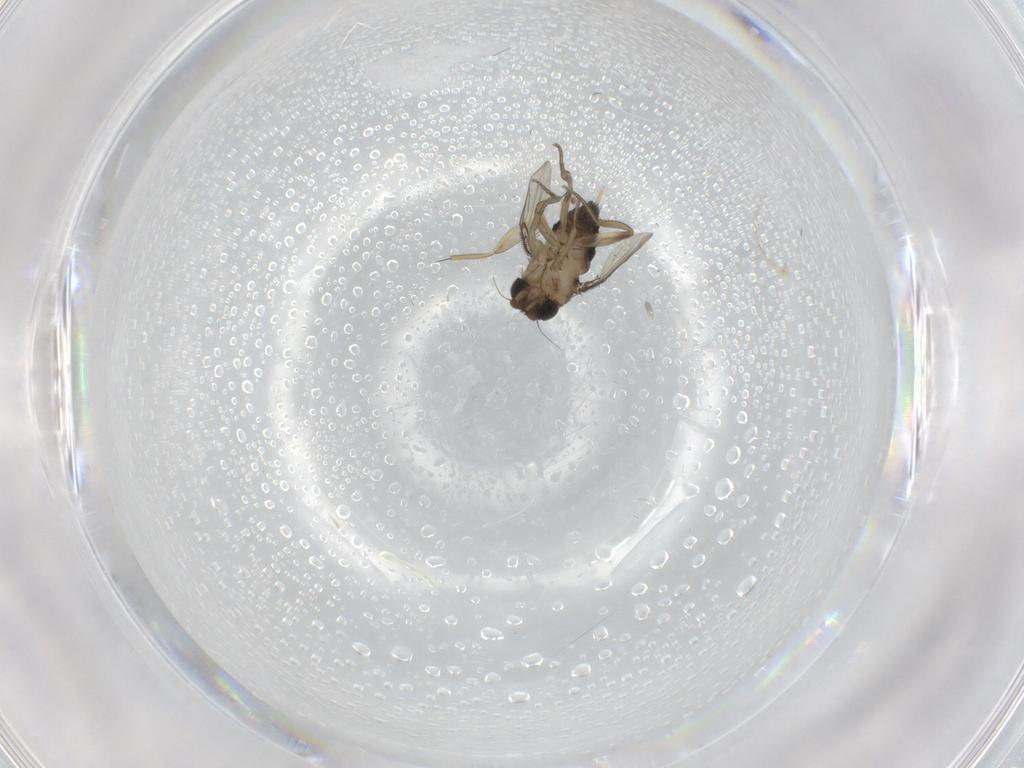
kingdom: Animalia
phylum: Arthropoda
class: Insecta
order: Diptera
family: Phoridae
